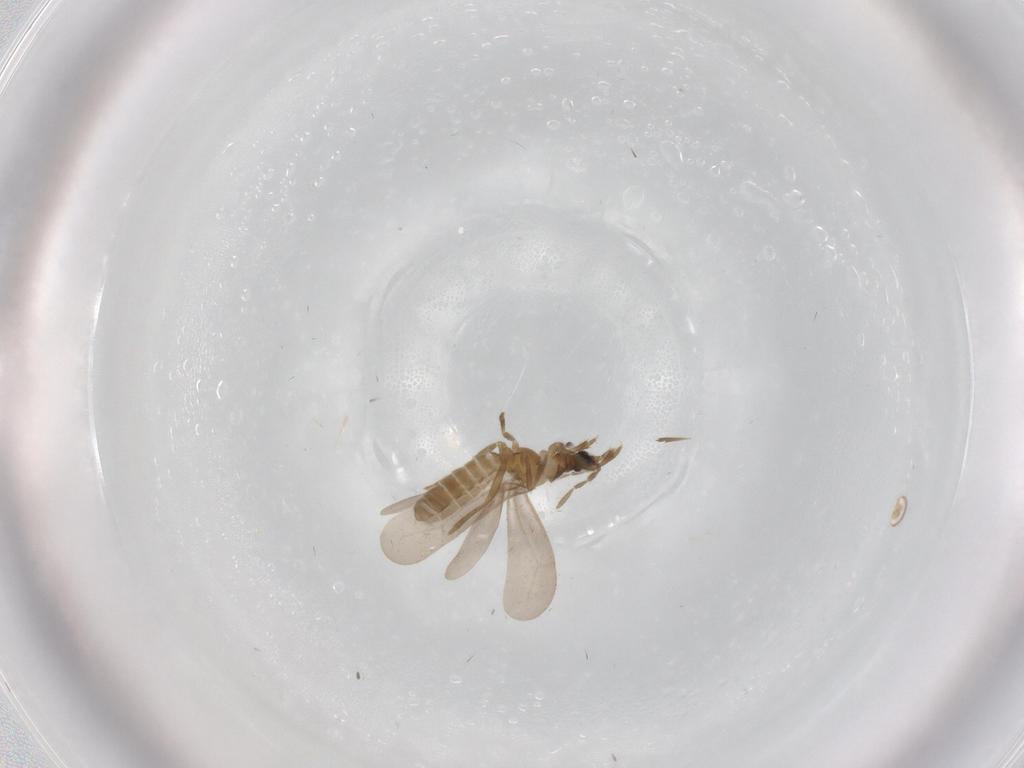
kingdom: Animalia
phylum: Arthropoda
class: Insecta
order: Hemiptera
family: Enicocephalidae
